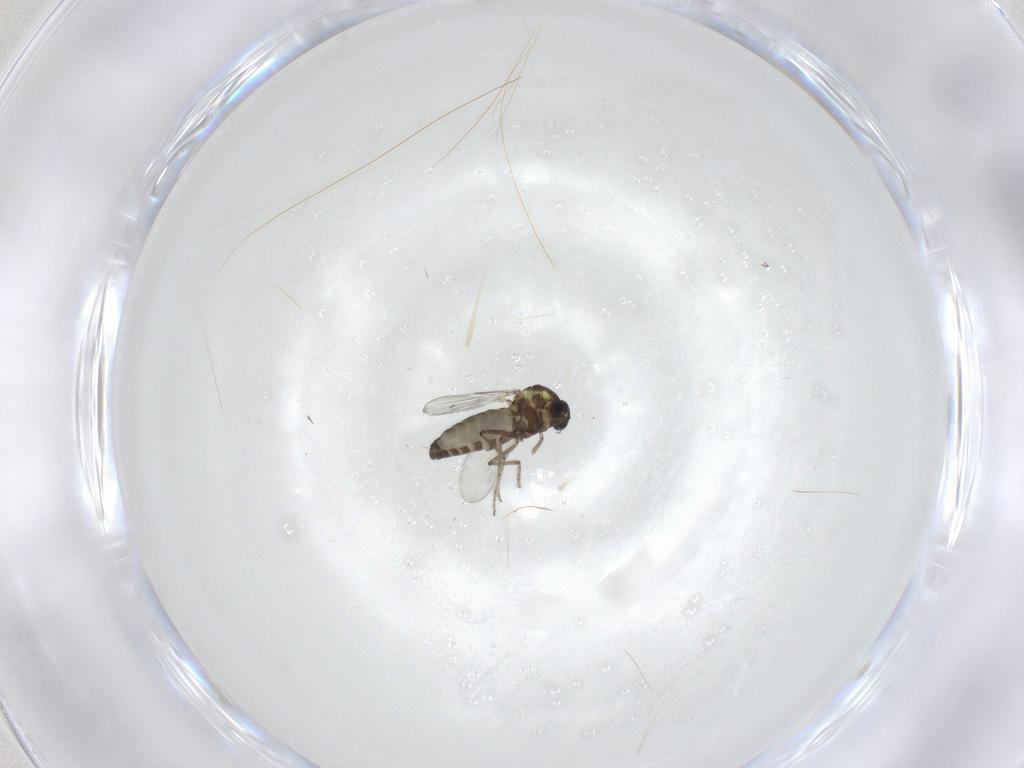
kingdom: Animalia
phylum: Arthropoda
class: Insecta
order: Diptera
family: Ceratopogonidae
